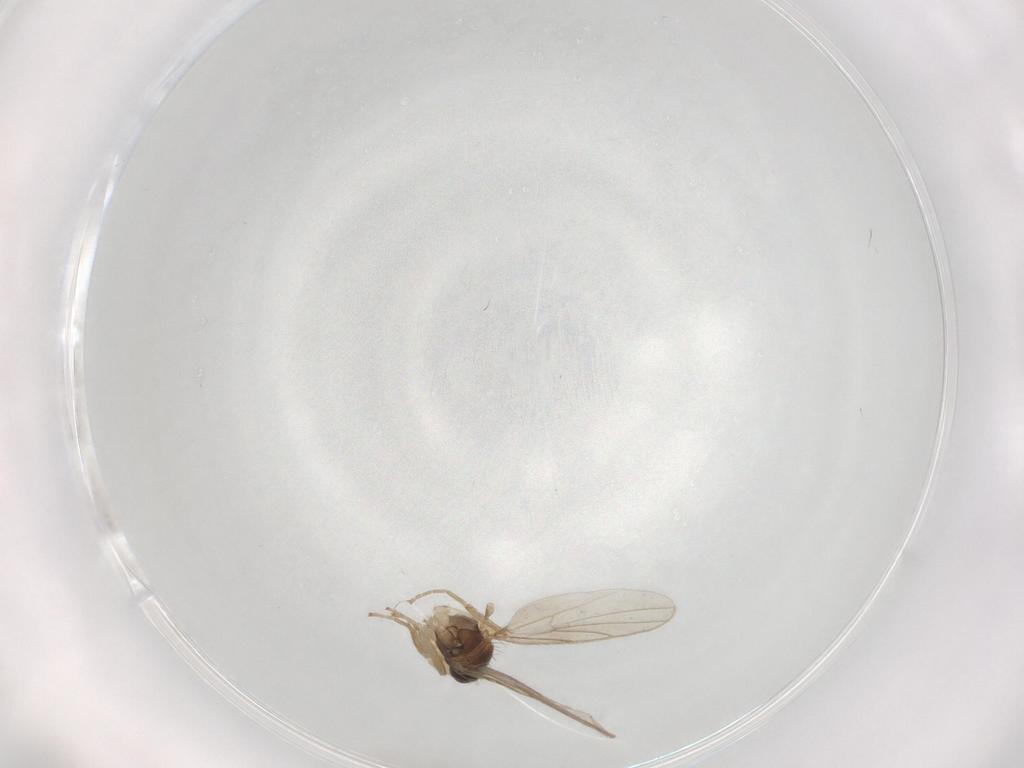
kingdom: Animalia
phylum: Arthropoda
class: Insecta
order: Diptera
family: Hybotidae
